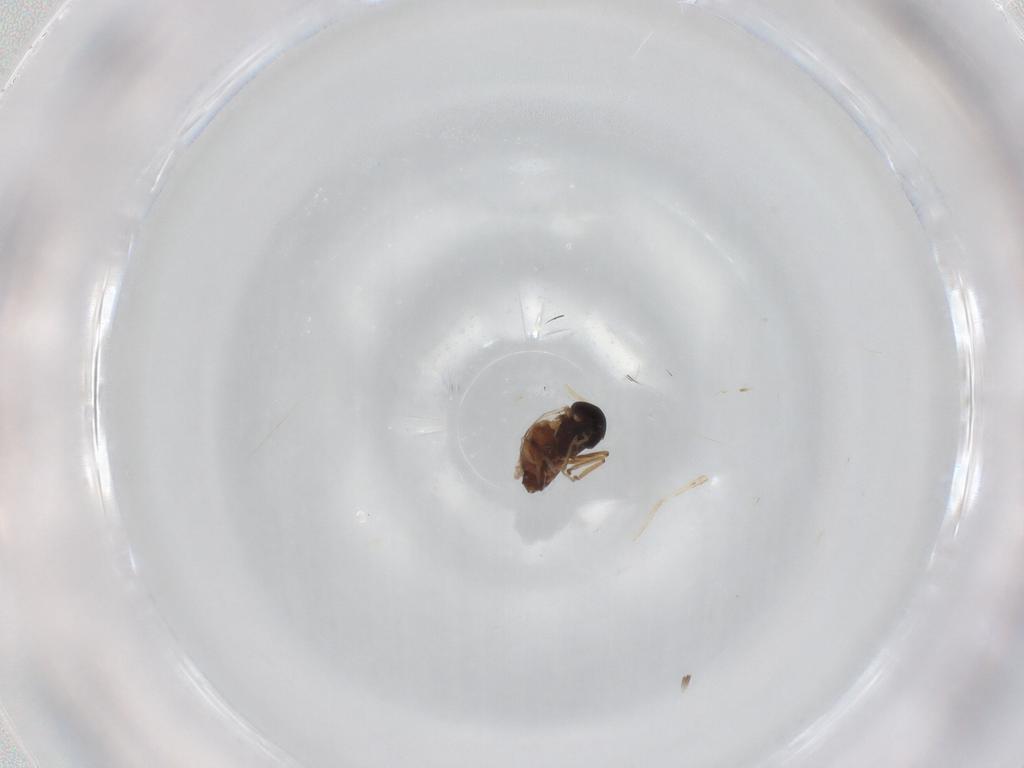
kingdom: Animalia
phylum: Arthropoda
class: Insecta
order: Diptera
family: Anthomyiidae
